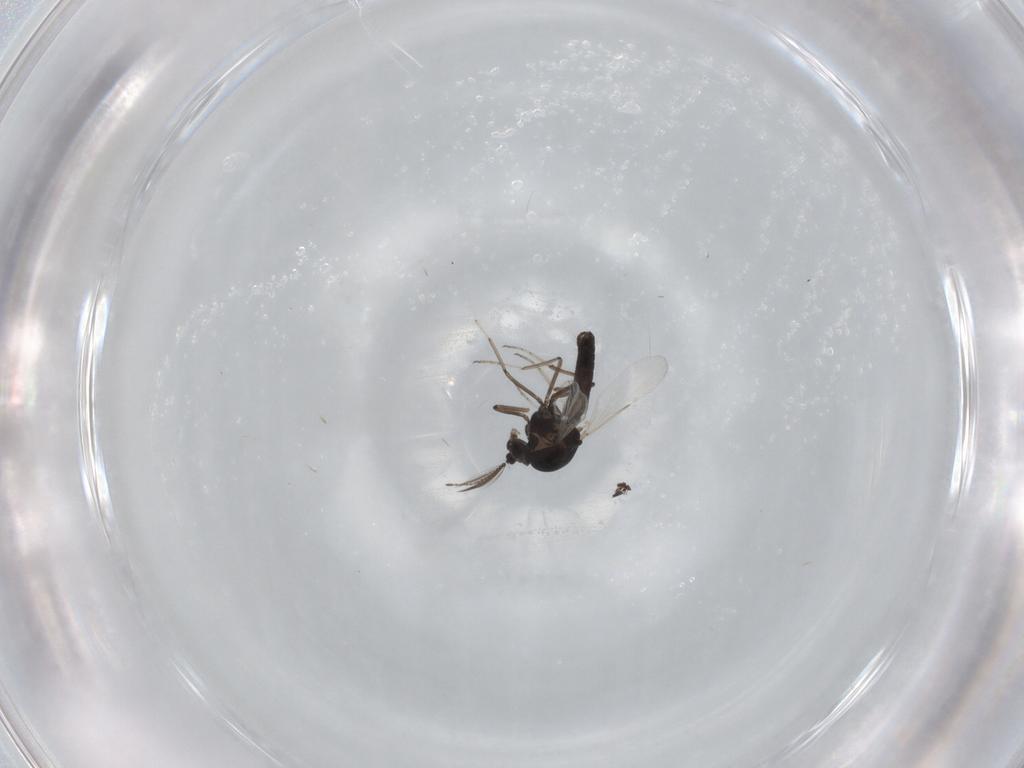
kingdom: Animalia
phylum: Arthropoda
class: Insecta
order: Diptera
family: Ceratopogonidae
